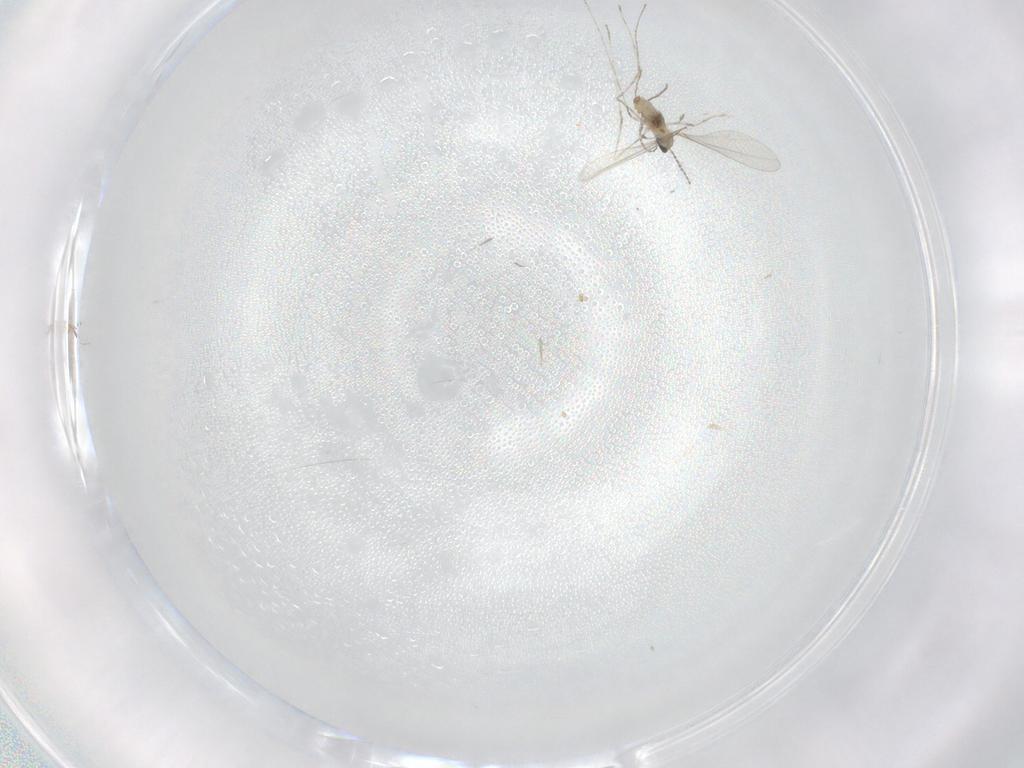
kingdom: Animalia
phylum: Arthropoda
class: Insecta
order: Diptera
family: Cecidomyiidae
